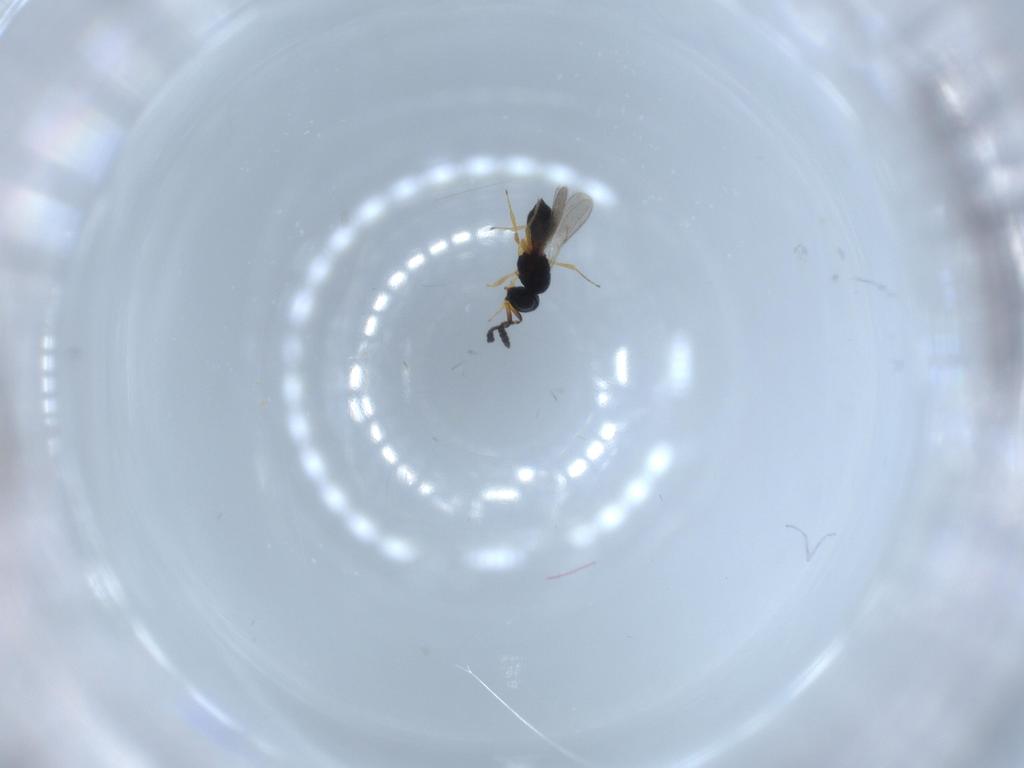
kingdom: Animalia
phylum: Arthropoda
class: Insecta
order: Hymenoptera
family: Scelionidae
